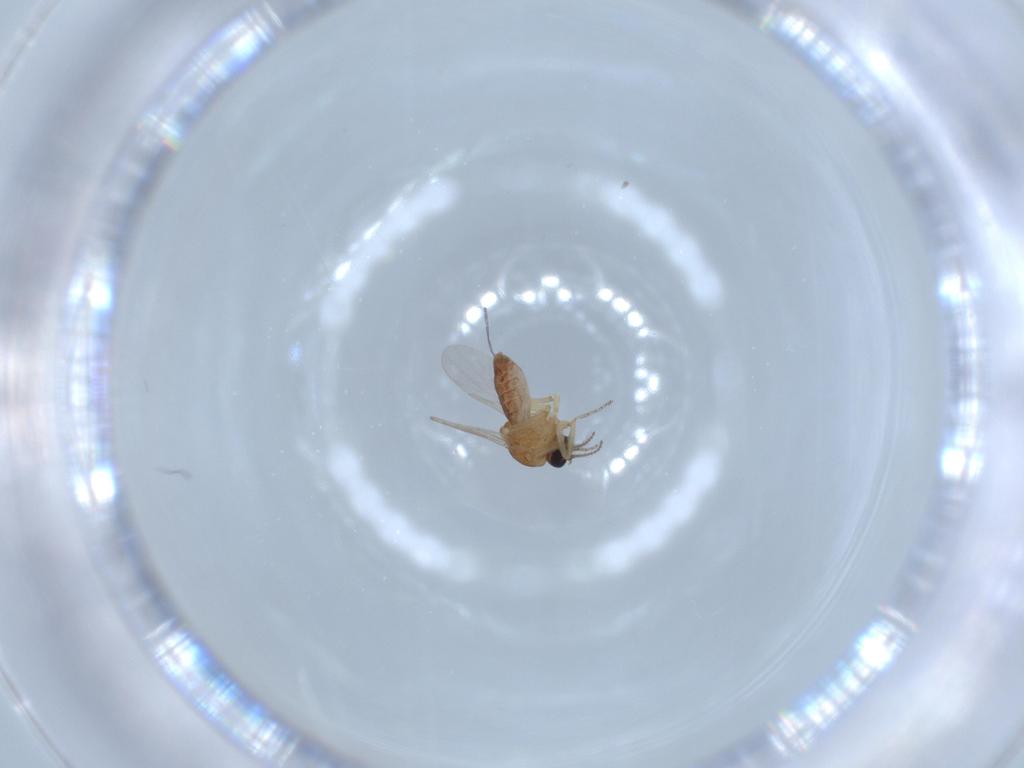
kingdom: Animalia
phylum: Arthropoda
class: Insecta
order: Diptera
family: Ceratopogonidae
